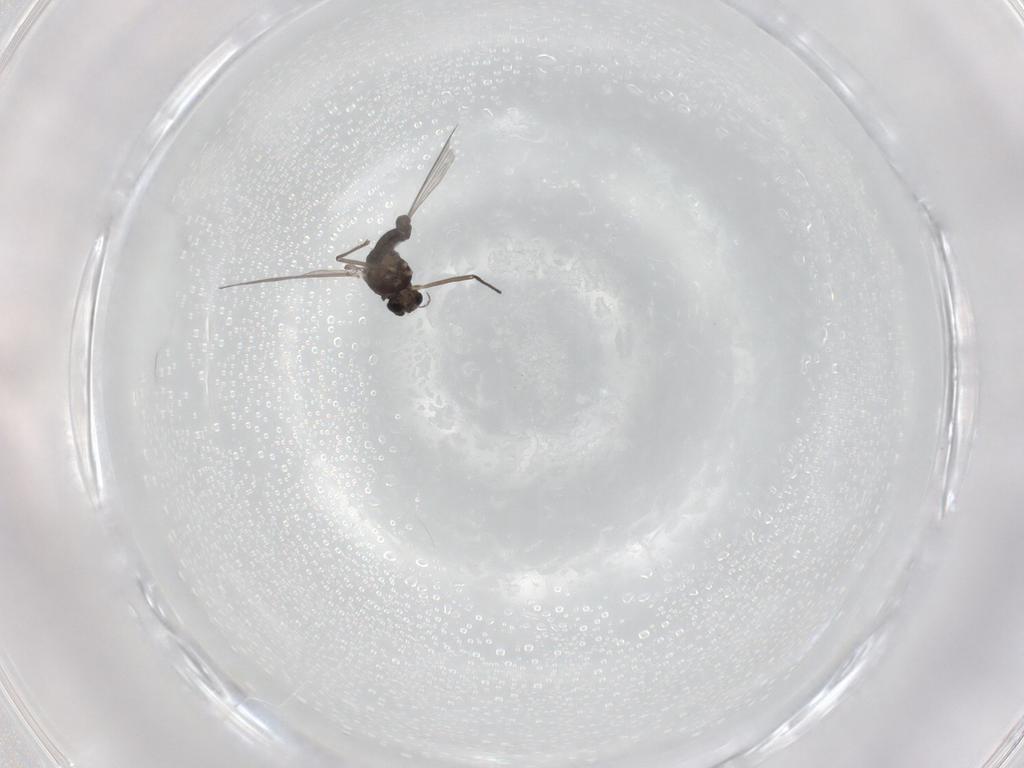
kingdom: Animalia
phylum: Arthropoda
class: Insecta
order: Diptera
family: Chironomidae
